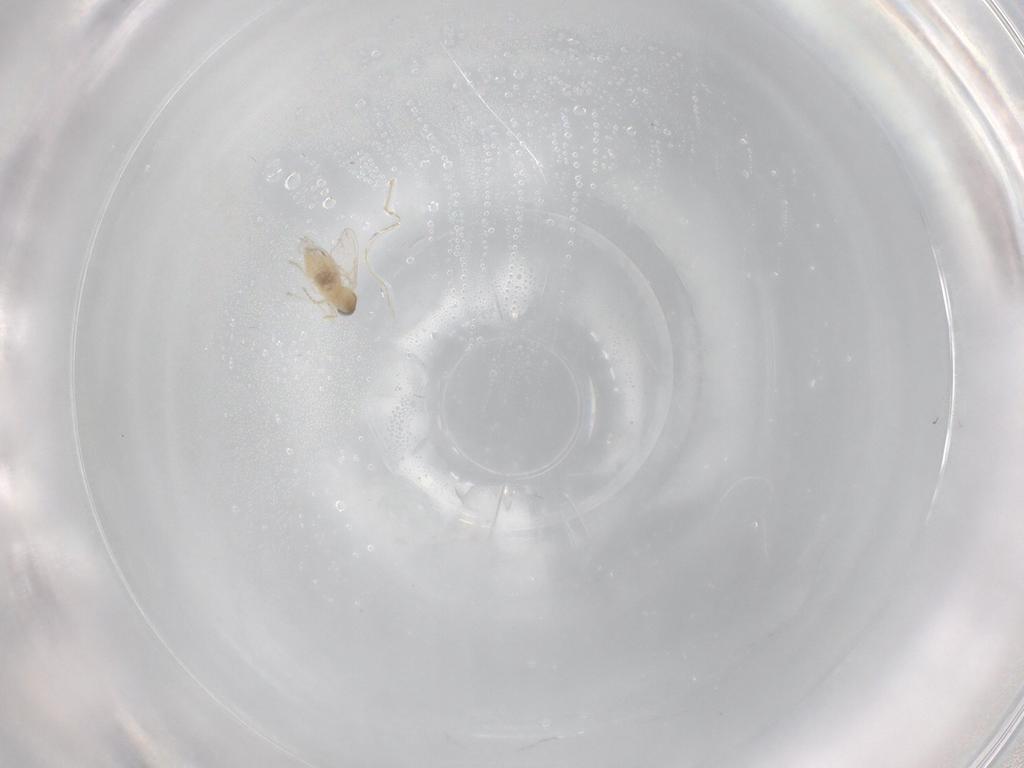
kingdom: Animalia
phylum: Arthropoda
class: Insecta
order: Diptera
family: Cecidomyiidae
